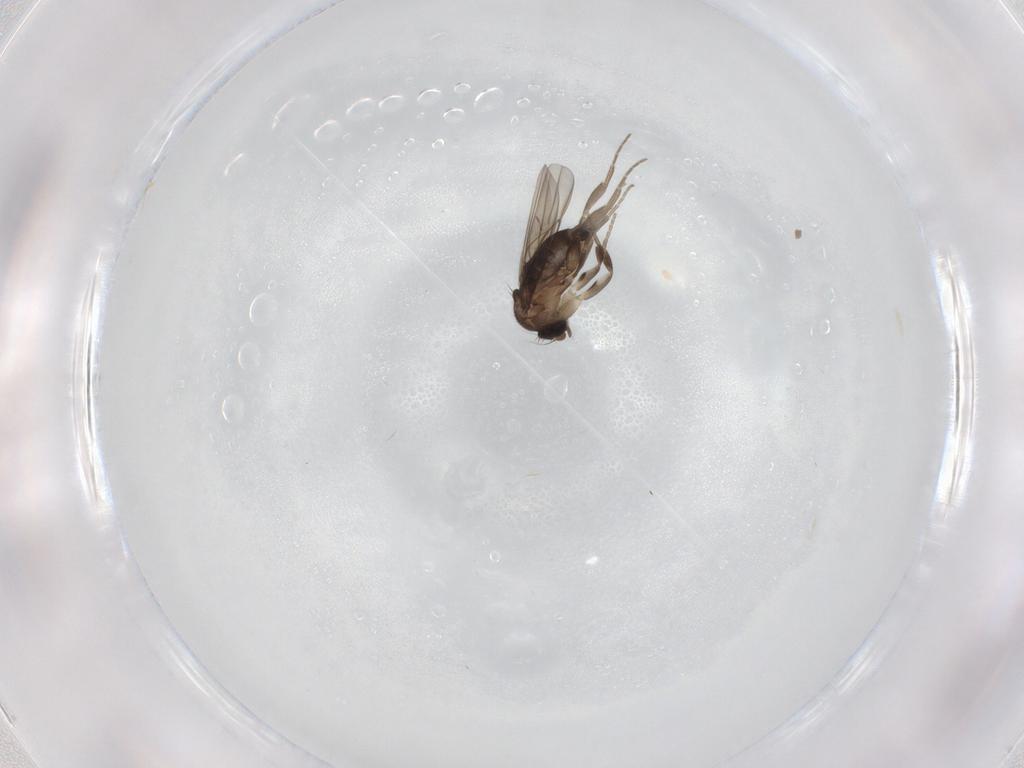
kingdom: Animalia
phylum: Arthropoda
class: Insecta
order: Diptera
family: Phoridae
